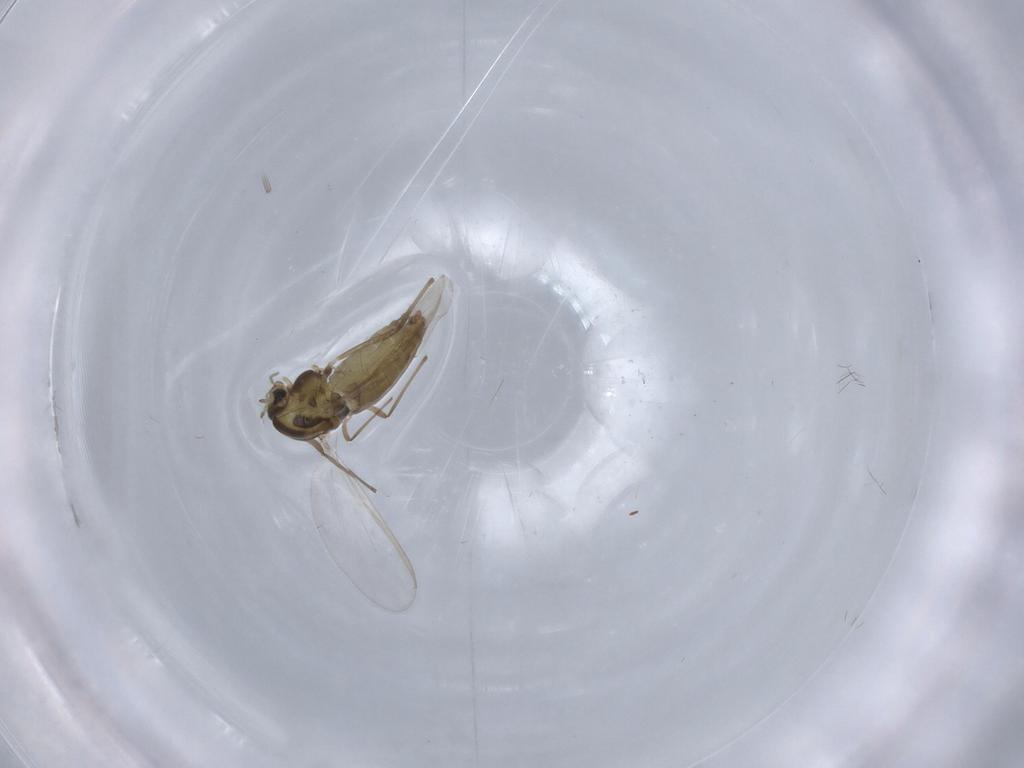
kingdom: Animalia
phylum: Arthropoda
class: Insecta
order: Diptera
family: Chironomidae
